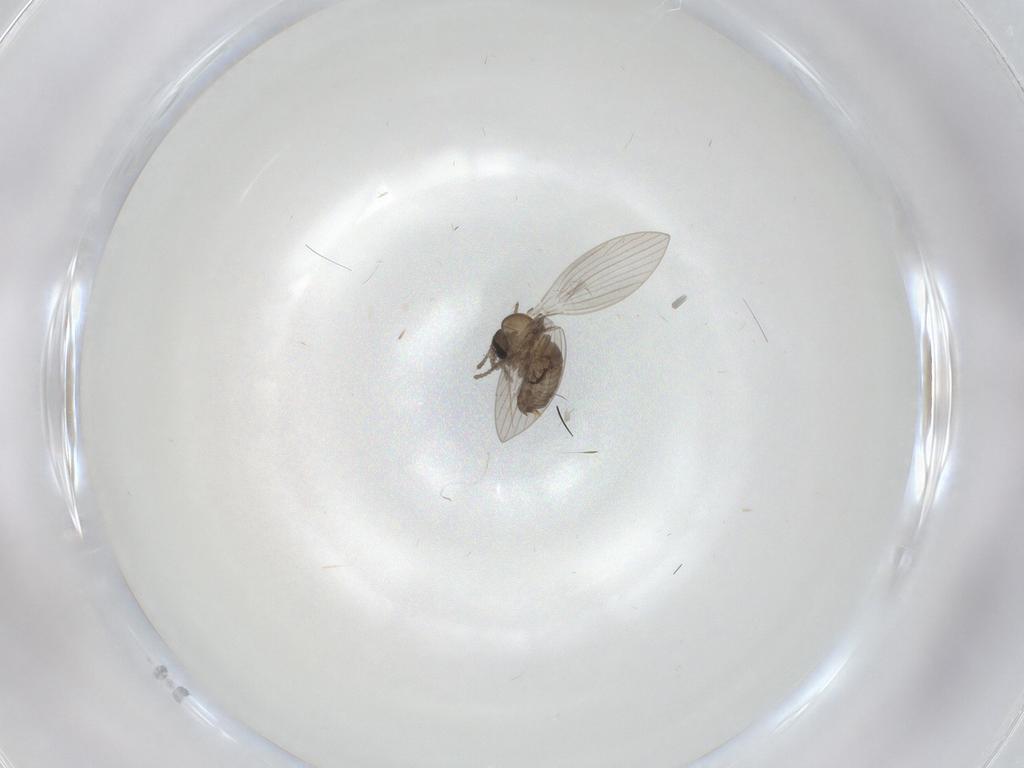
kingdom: Animalia
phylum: Arthropoda
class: Insecta
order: Diptera
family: Psychodidae
